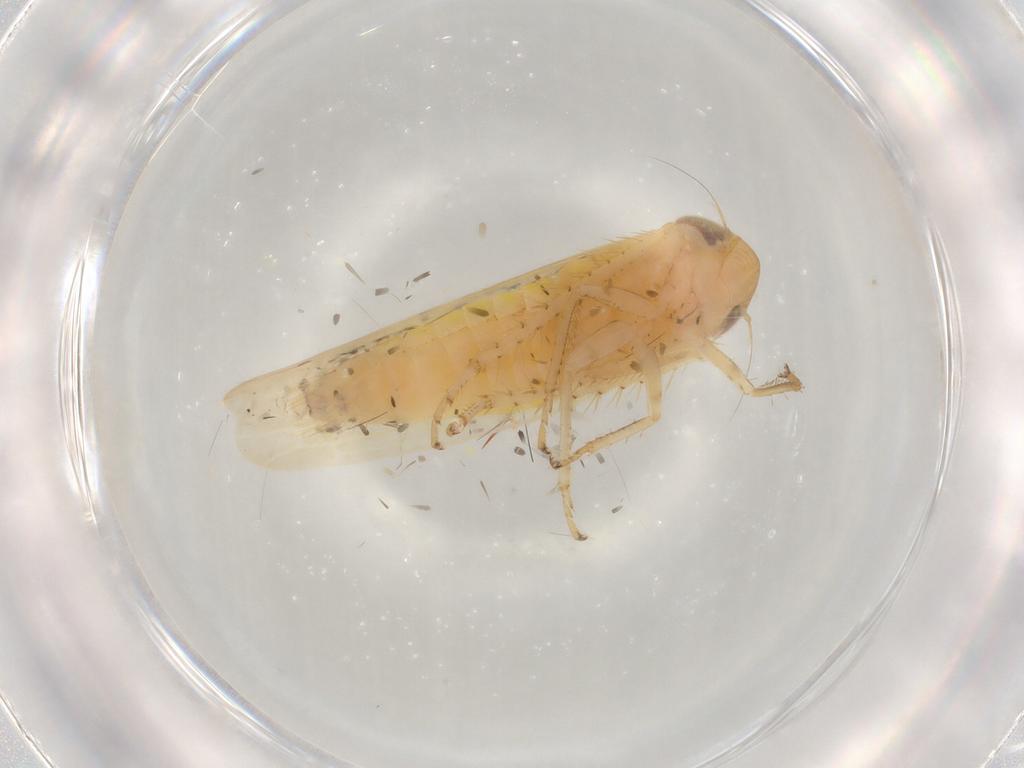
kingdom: Animalia
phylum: Arthropoda
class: Insecta
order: Hemiptera
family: Cicadellidae
